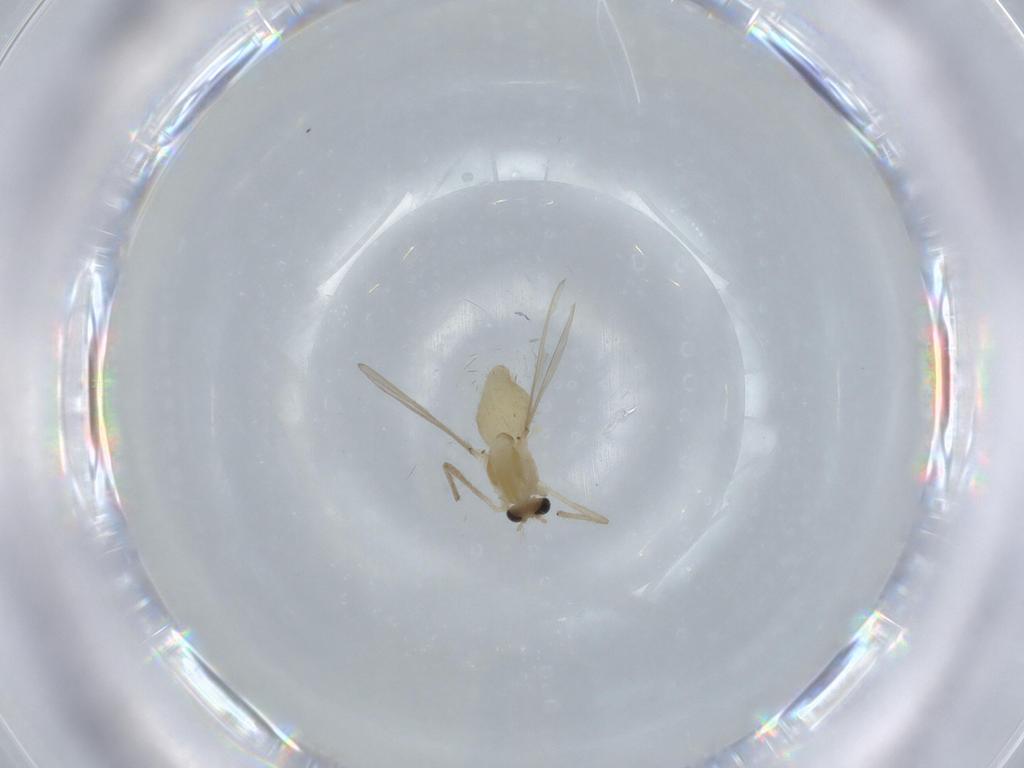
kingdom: Animalia
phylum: Arthropoda
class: Insecta
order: Diptera
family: Chironomidae
